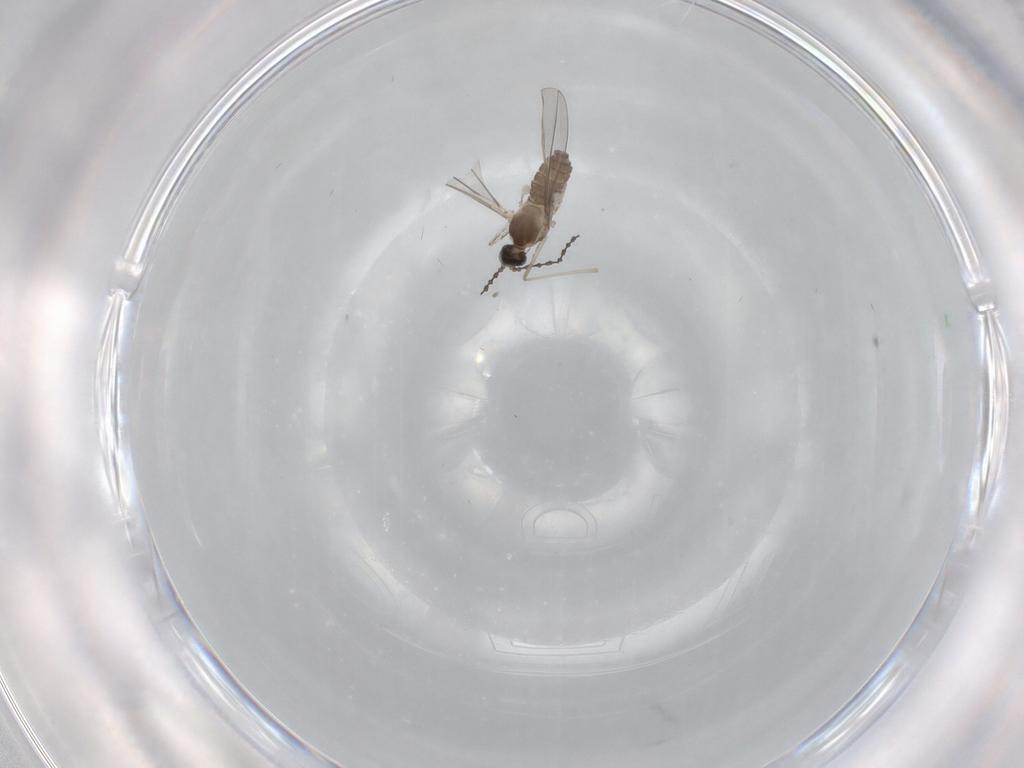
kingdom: Animalia
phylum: Arthropoda
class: Insecta
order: Diptera
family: Cecidomyiidae
